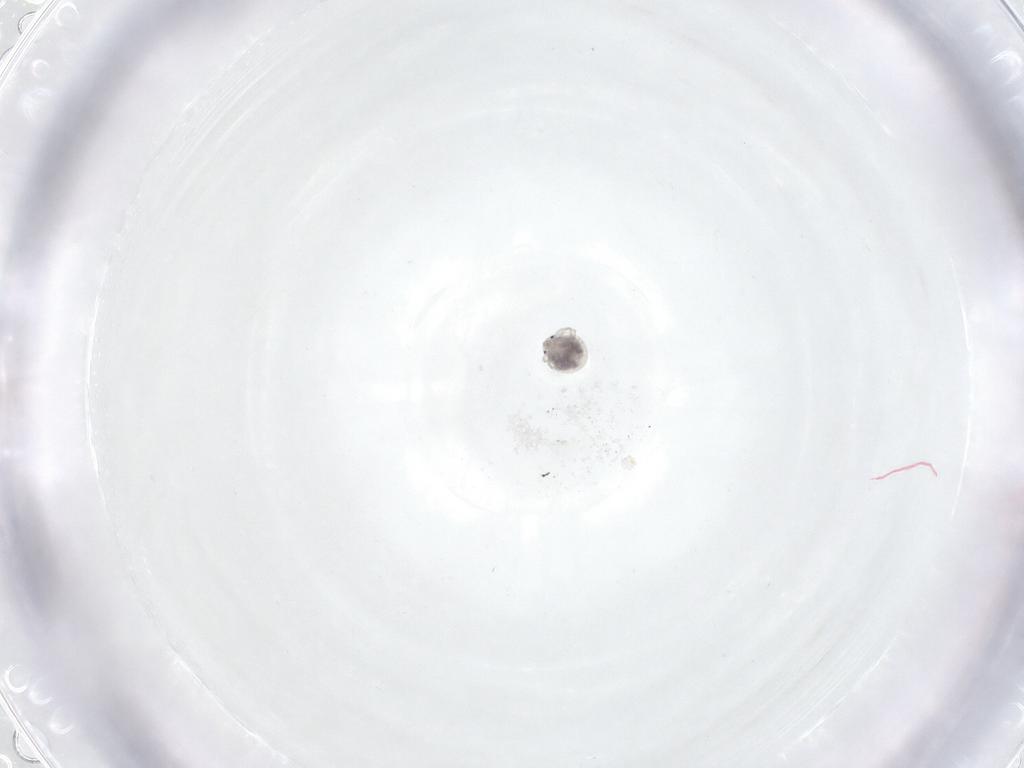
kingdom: Animalia
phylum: Arthropoda
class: Arachnida
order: Trombidiformes
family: Pionidae
